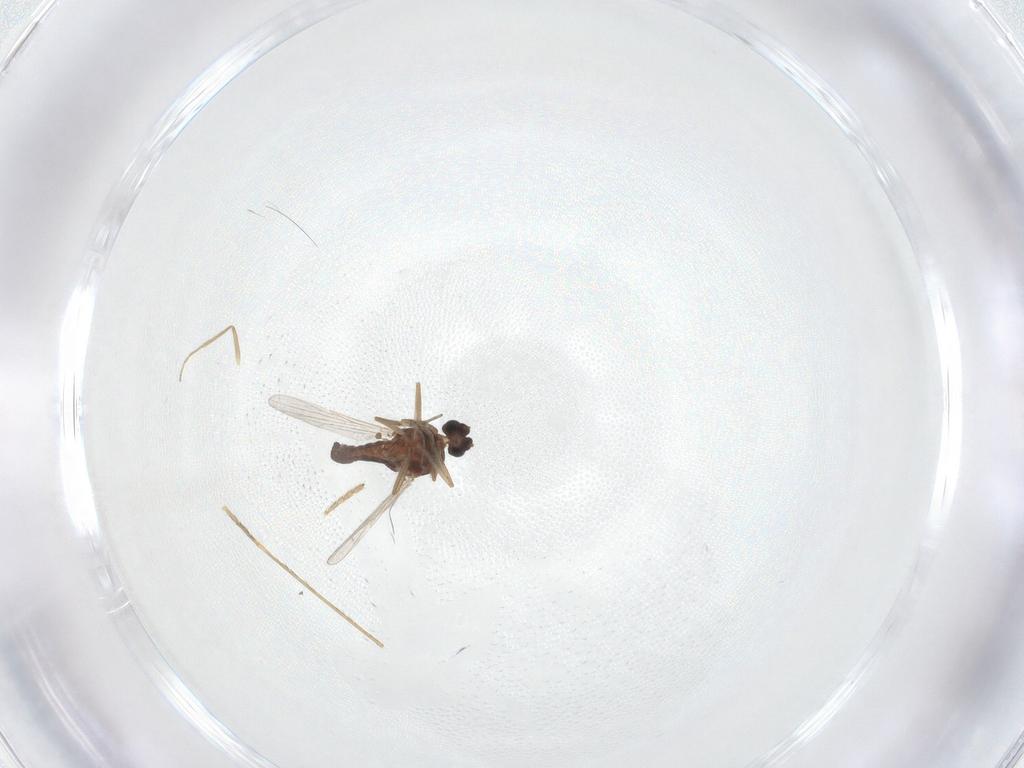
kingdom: Animalia
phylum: Arthropoda
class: Insecta
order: Diptera
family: Ceratopogonidae
